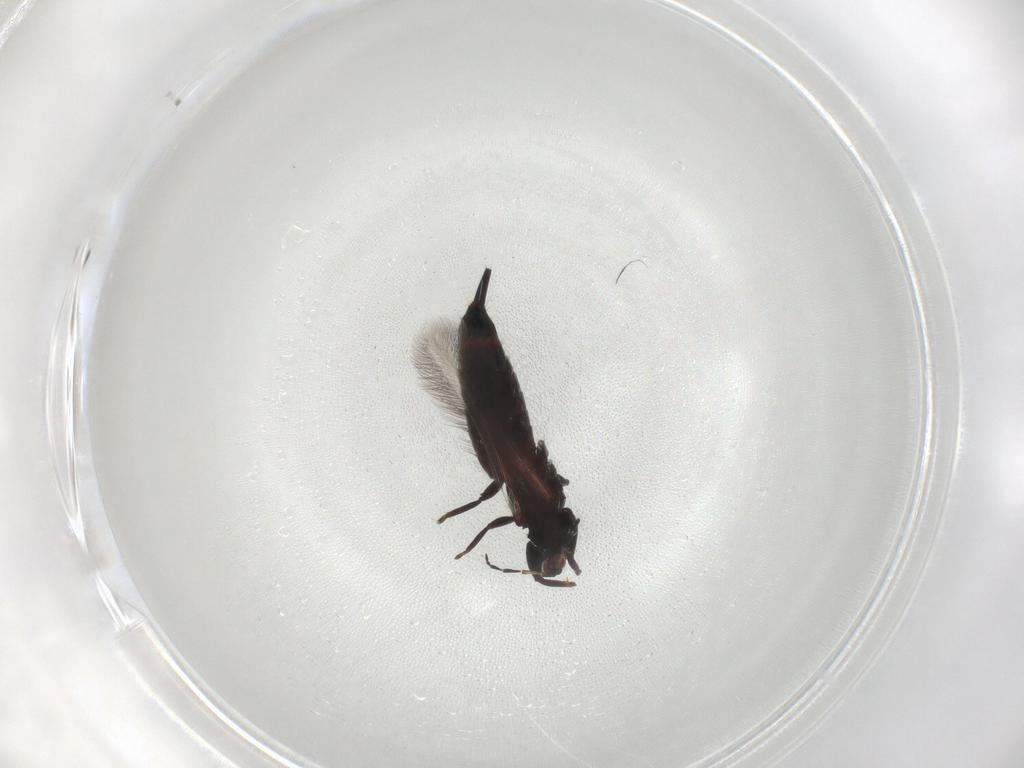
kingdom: Animalia
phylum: Arthropoda
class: Insecta
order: Thysanoptera
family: Phlaeothripidae
